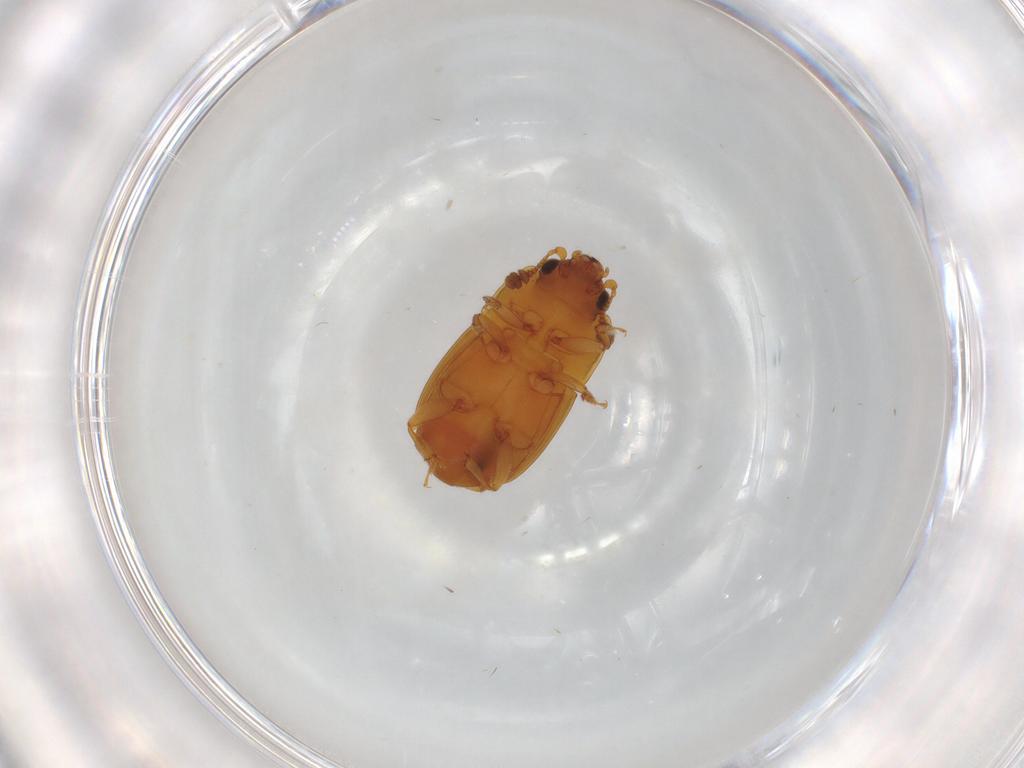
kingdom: Animalia
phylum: Arthropoda
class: Insecta
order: Coleoptera
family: Nitidulidae
